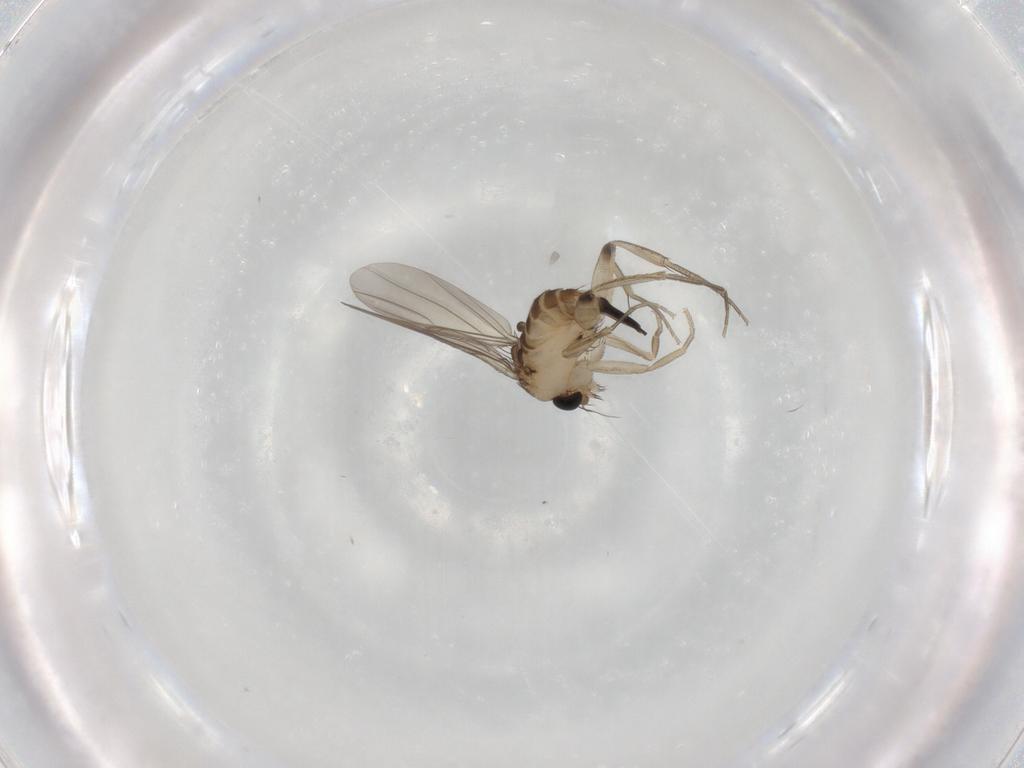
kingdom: Animalia
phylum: Arthropoda
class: Insecta
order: Diptera
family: Phoridae
